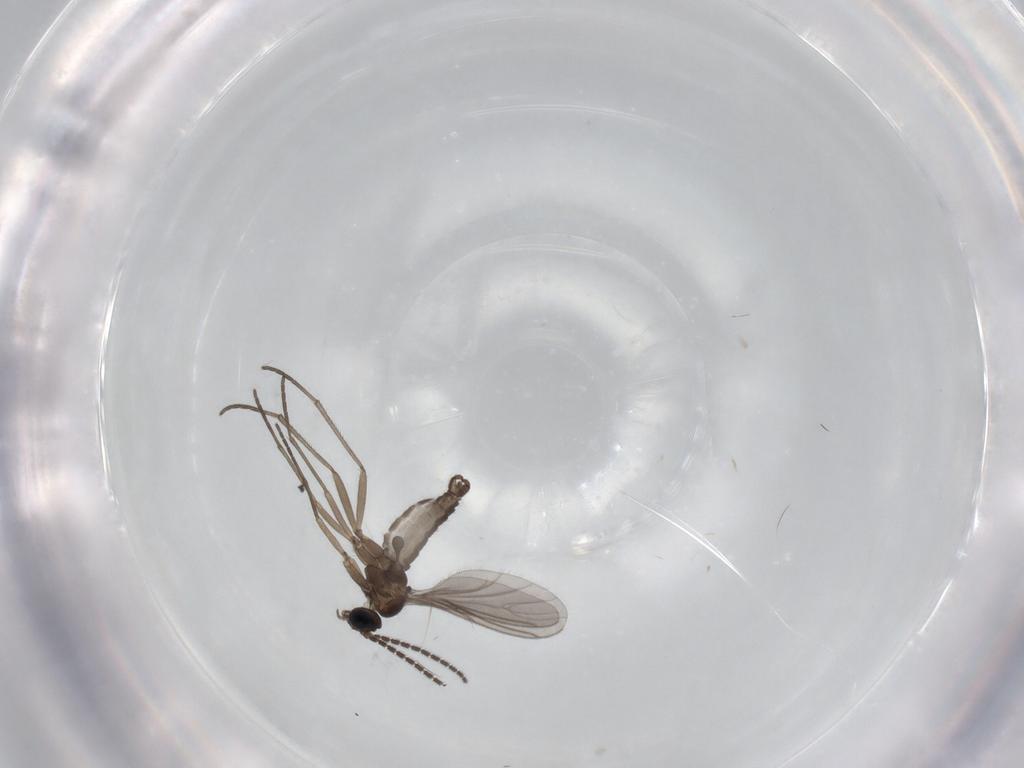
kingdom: Animalia
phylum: Arthropoda
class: Insecta
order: Diptera
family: Sciaridae
